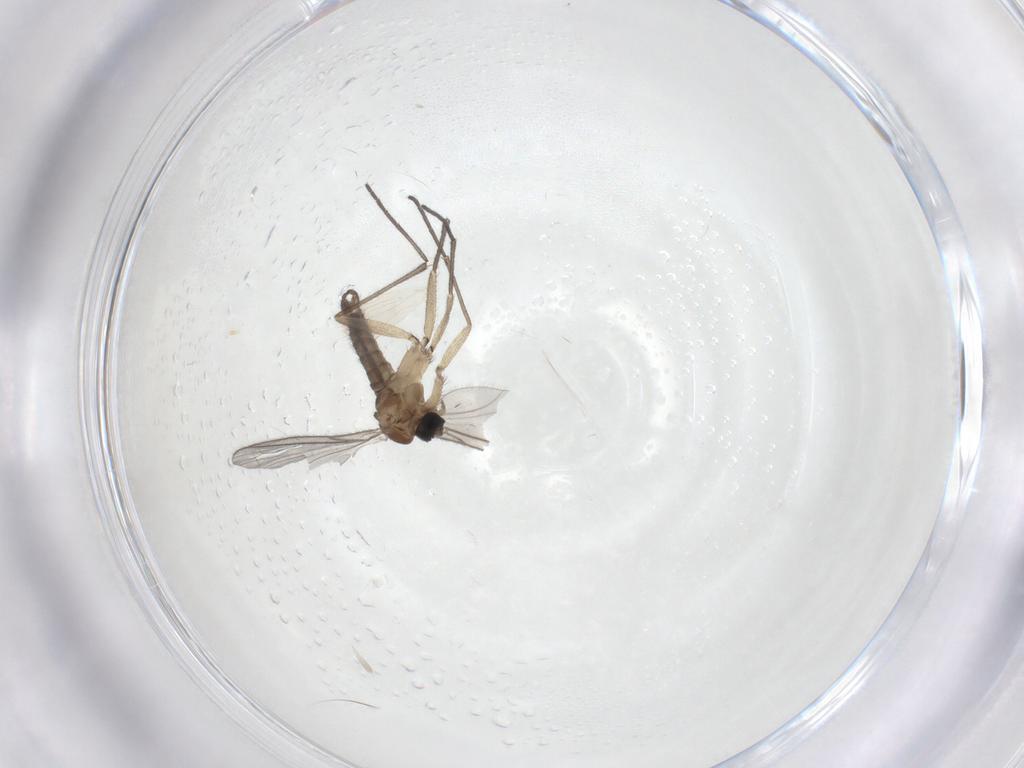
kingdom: Animalia
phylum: Arthropoda
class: Insecta
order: Diptera
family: Sciaridae
